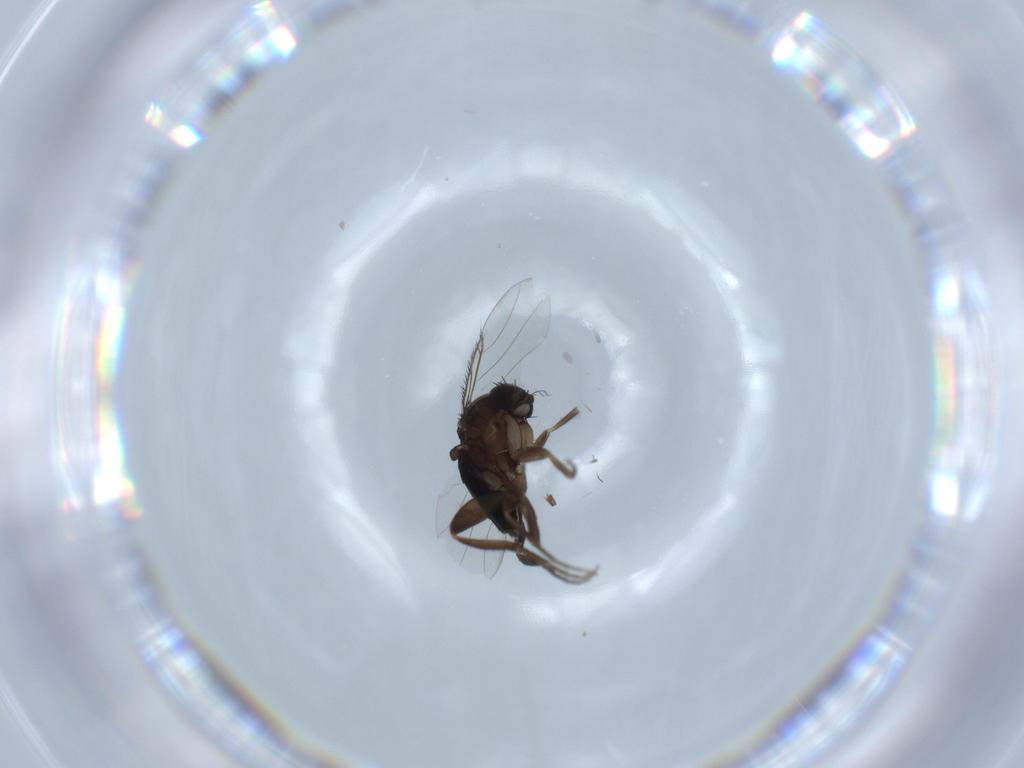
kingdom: Animalia
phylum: Arthropoda
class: Insecta
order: Diptera
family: Phoridae
